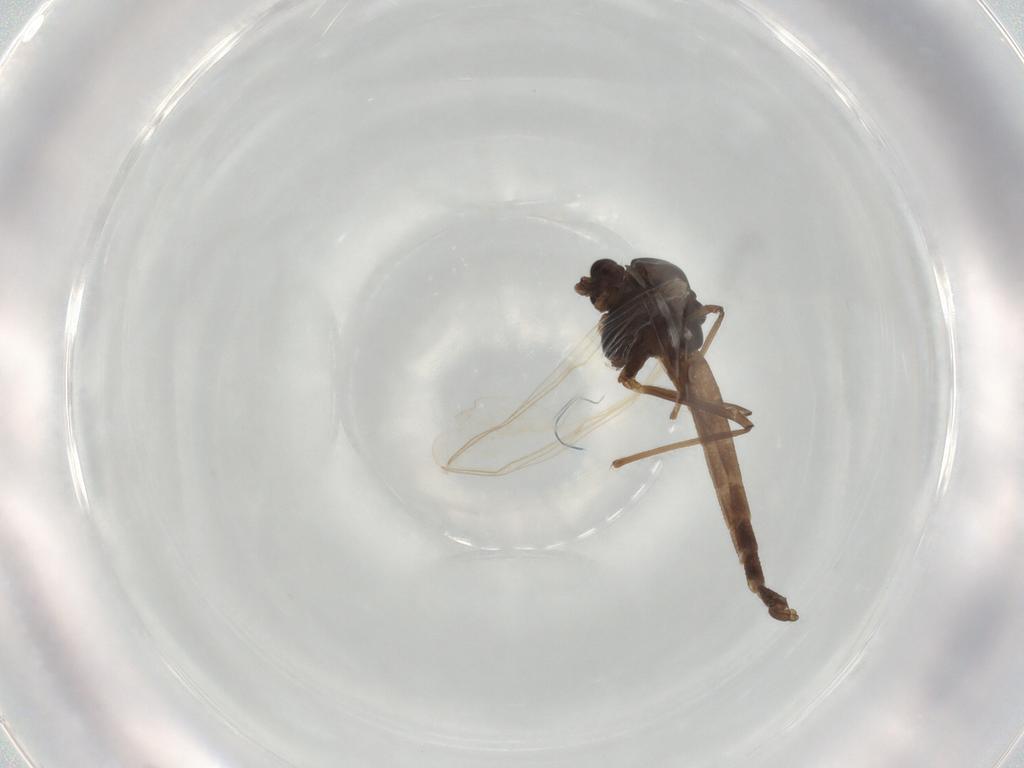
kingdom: Animalia
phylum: Arthropoda
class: Insecta
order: Diptera
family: Chironomidae
